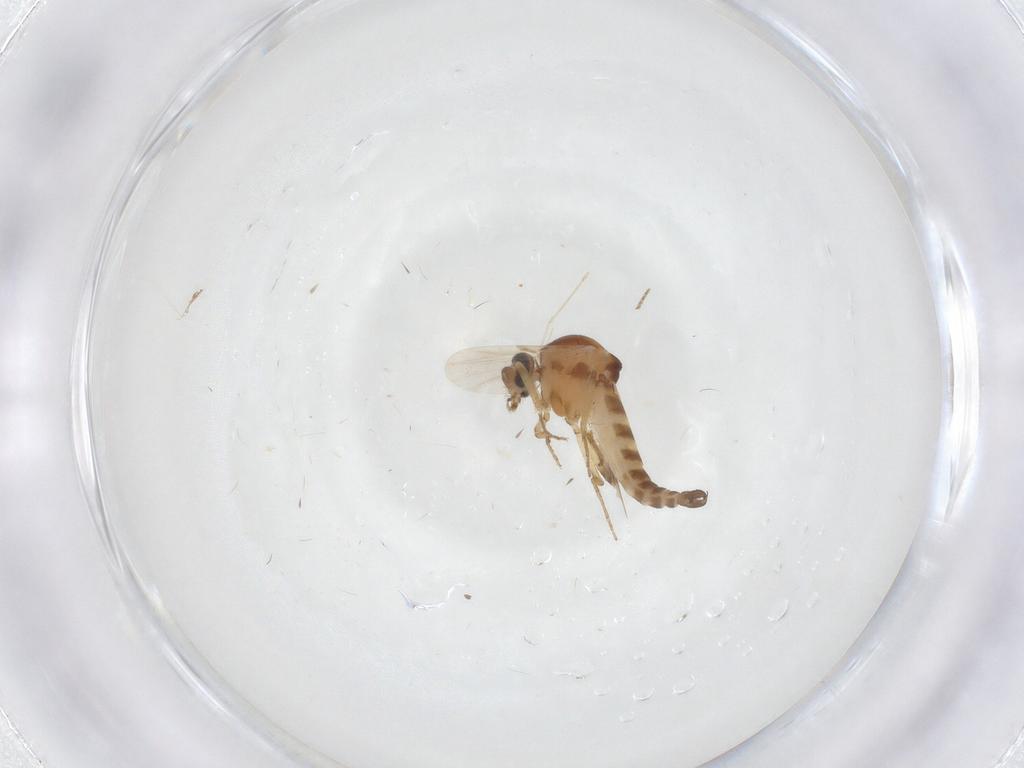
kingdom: Animalia
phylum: Arthropoda
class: Insecta
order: Diptera
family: Ceratopogonidae
